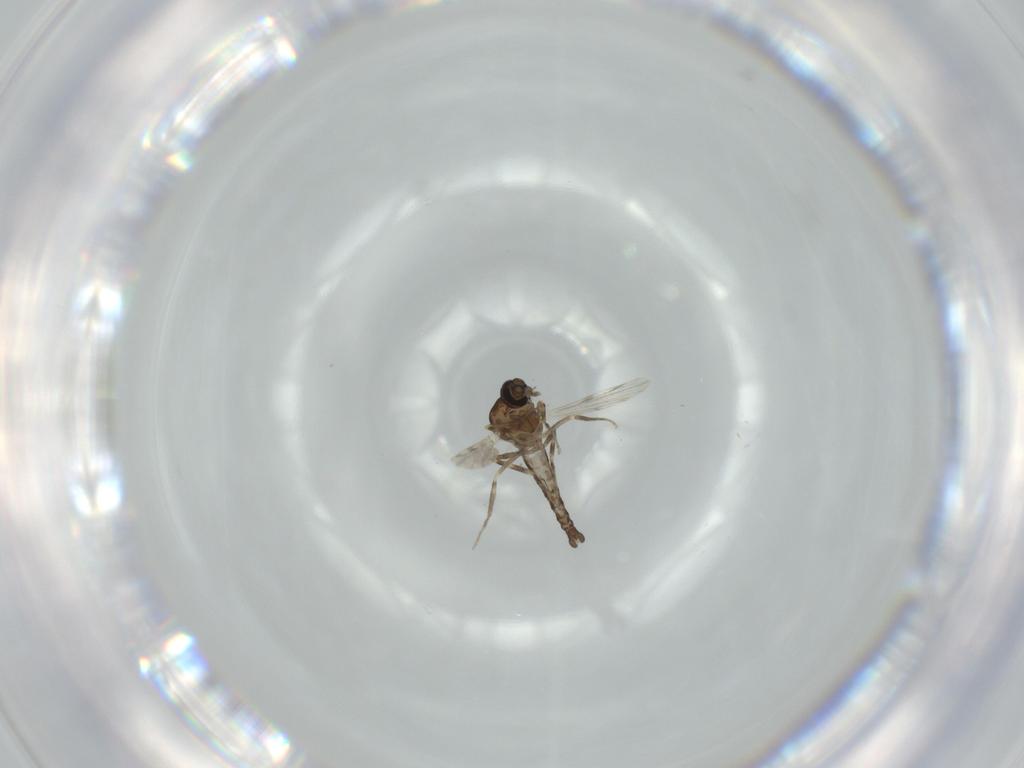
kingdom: Animalia
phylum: Arthropoda
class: Insecta
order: Diptera
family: Ceratopogonidae
